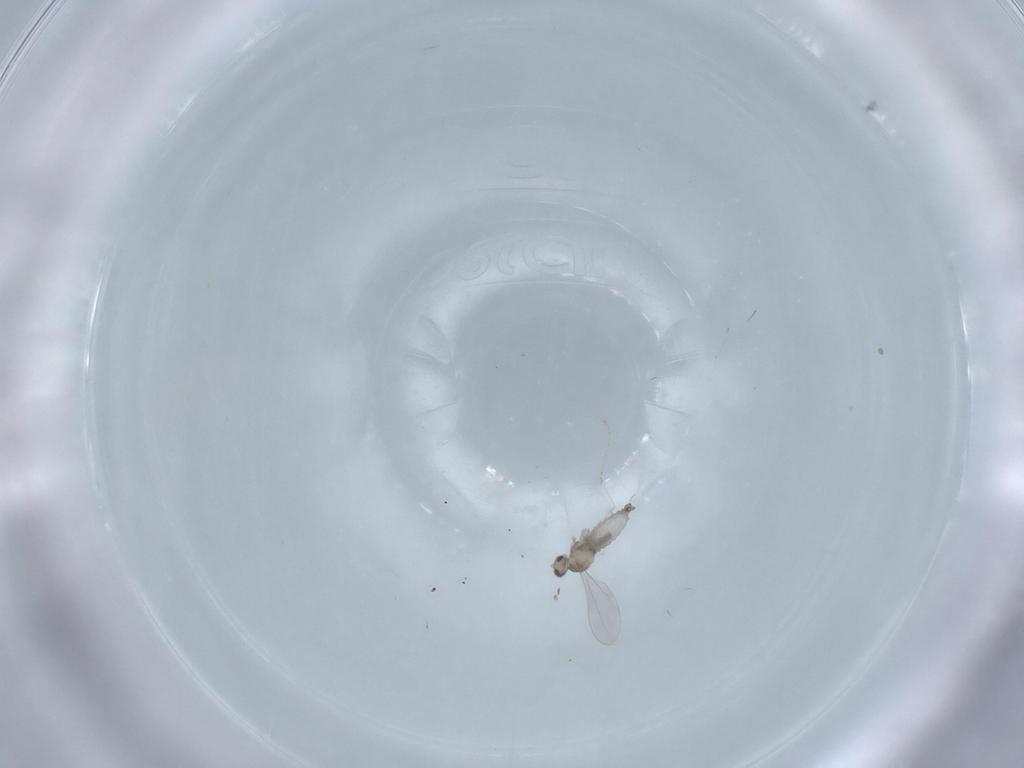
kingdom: Animalia
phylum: Arthropoda
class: Insecta
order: Diptera
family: Cecidomyiidae
